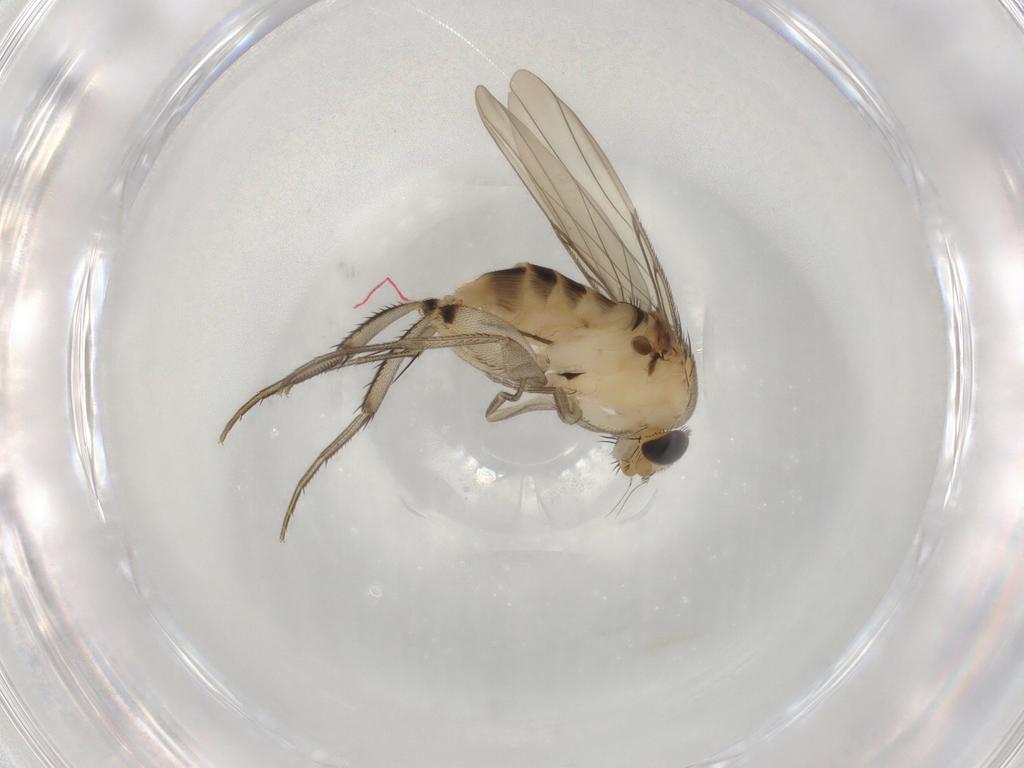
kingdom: Animalia
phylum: Arthropoda
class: Insecta
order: Diptera
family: Phoridae
